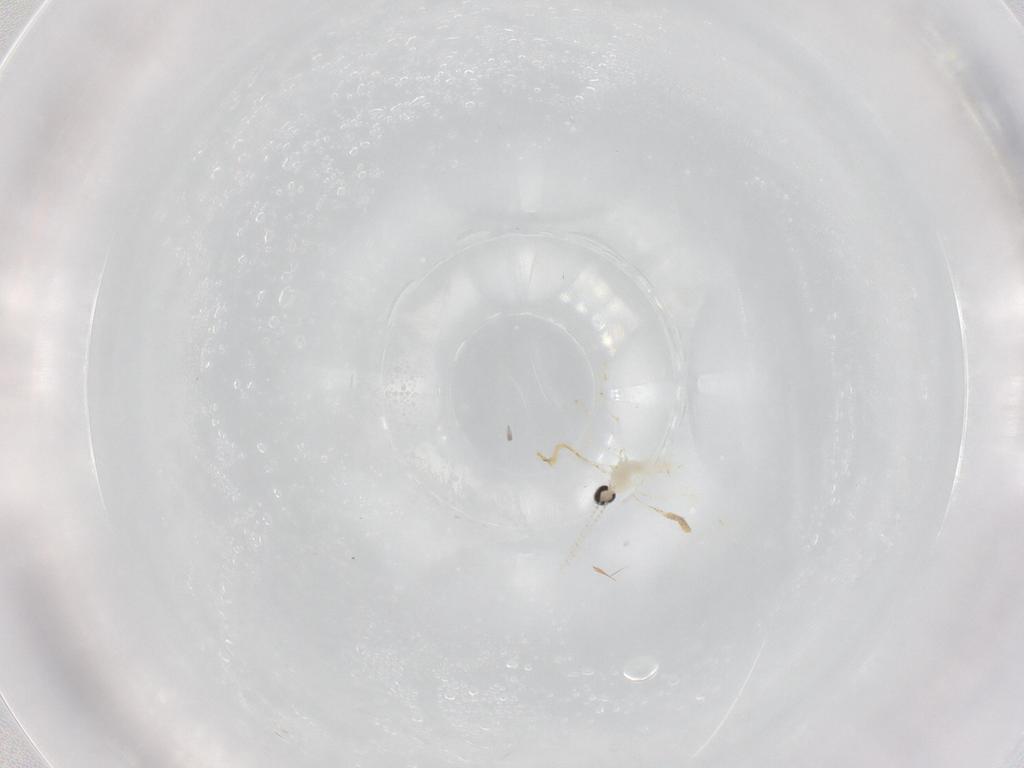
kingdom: Animalia
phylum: Arthropoda
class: Insecta
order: Diptera
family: Cecidomyiidae
